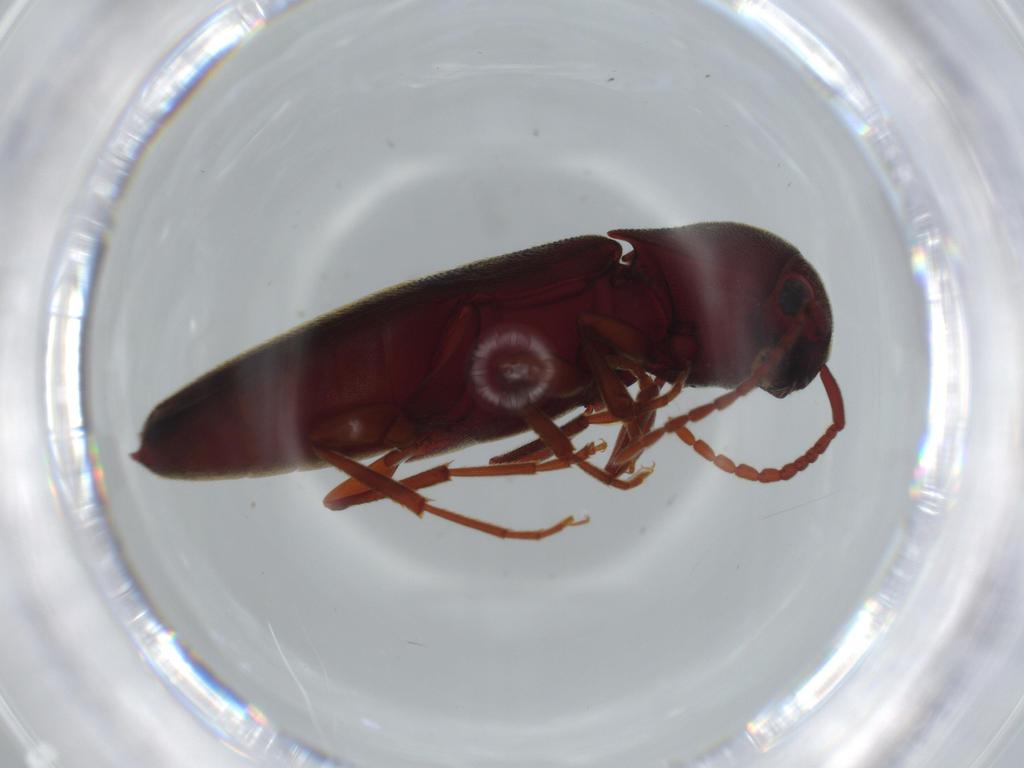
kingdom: Animalia
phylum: Arthropoda
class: Insecta
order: Coleoptera
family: Eucnemidae
